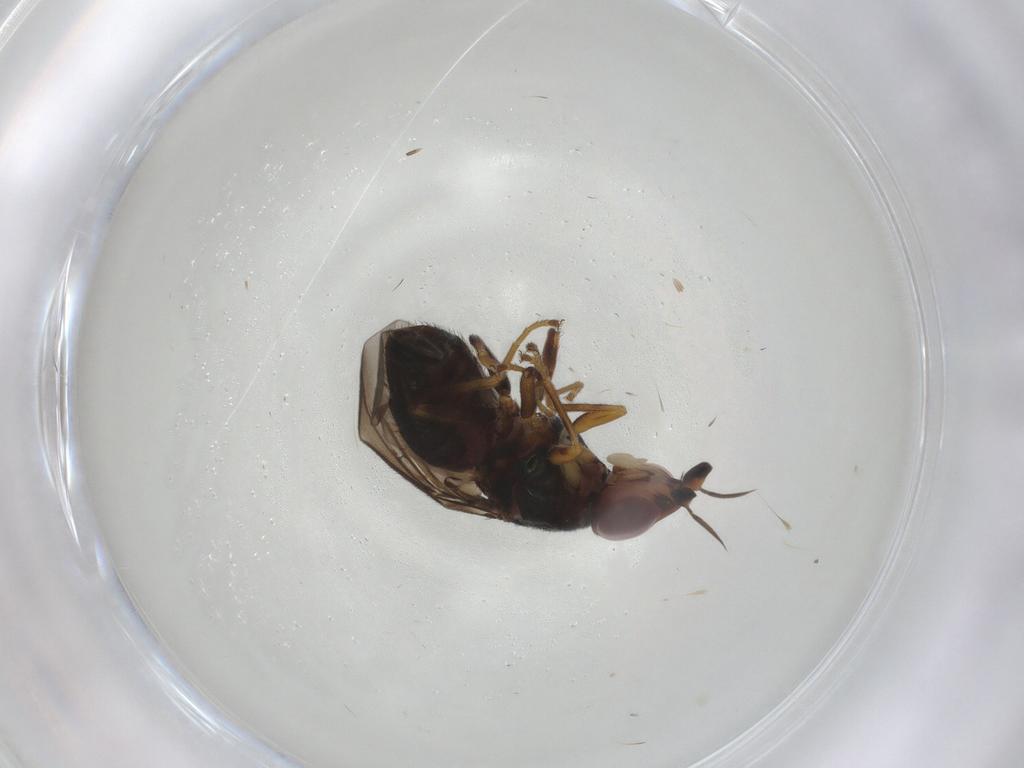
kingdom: Animalia
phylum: Arthropoda
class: Insecta
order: Diptera
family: Chloropidae
